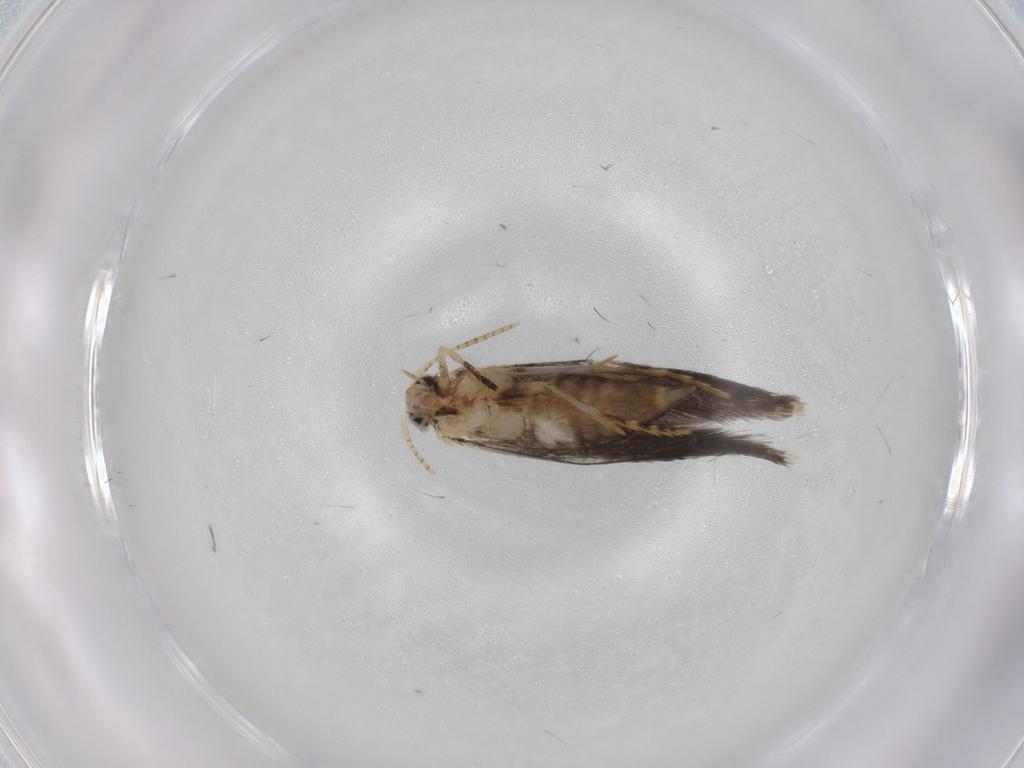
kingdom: Animalia
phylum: Arthropoda
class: Insecta
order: Lepidoptera
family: Tineidae
